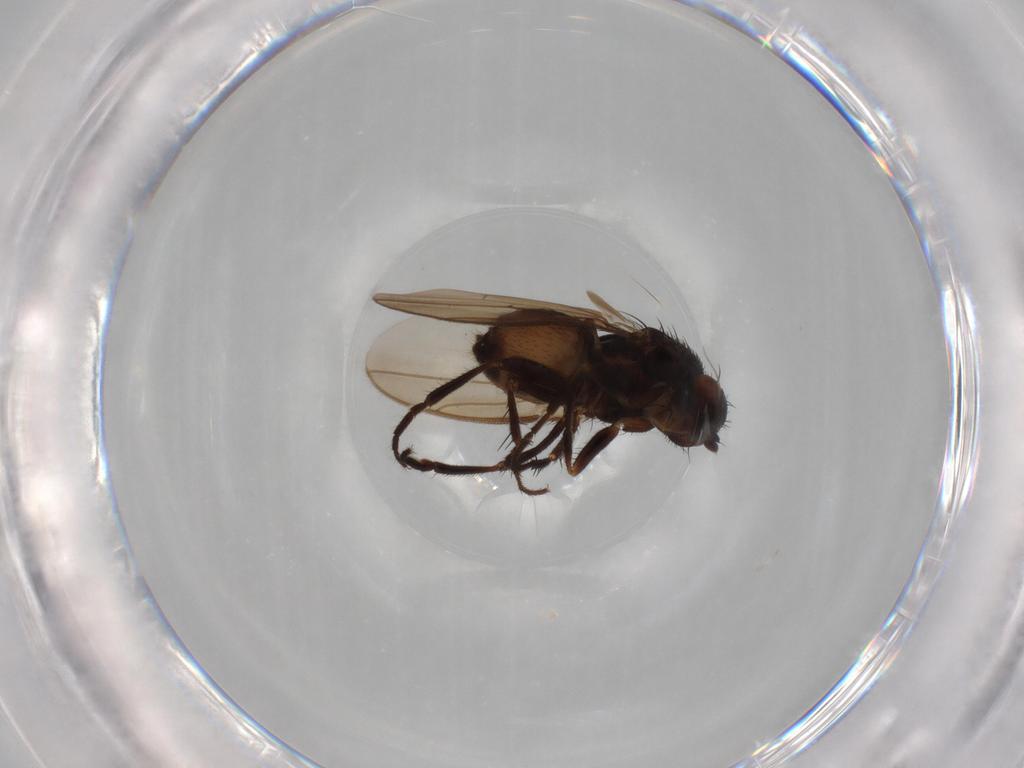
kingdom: Animalia
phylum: Arthropoda
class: Insecta
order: Diptera
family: Sphaeroceridae
